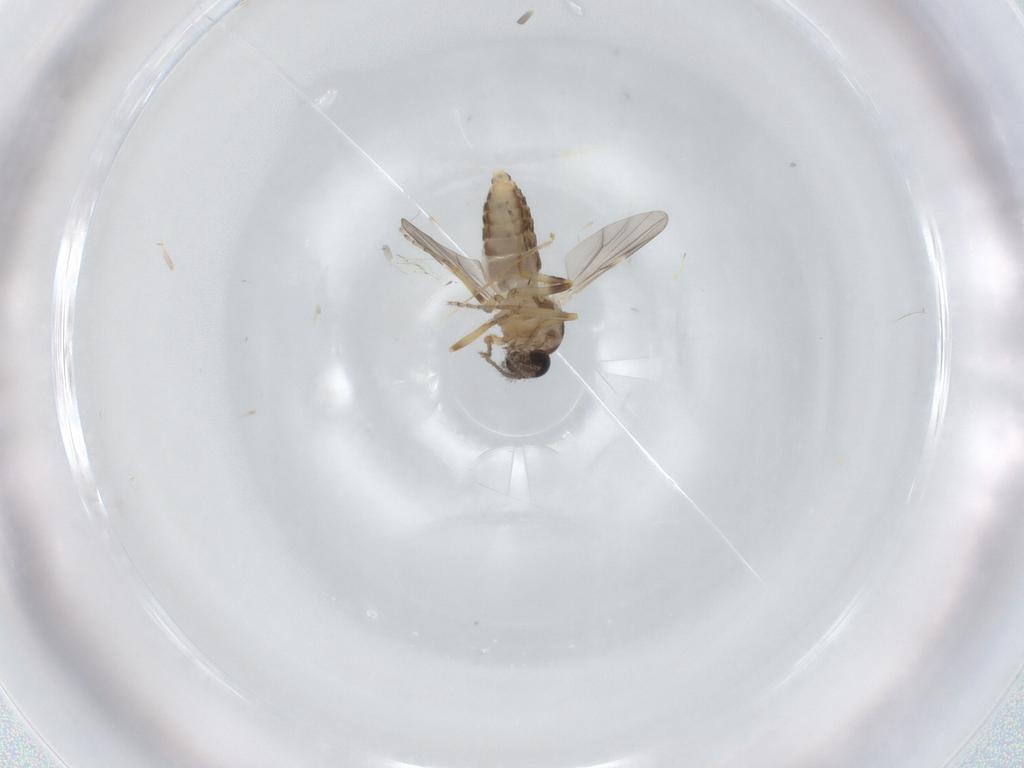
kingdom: Animalia
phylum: Arthropoda
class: Insecta
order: Diptera
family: Ceratopogonidae
